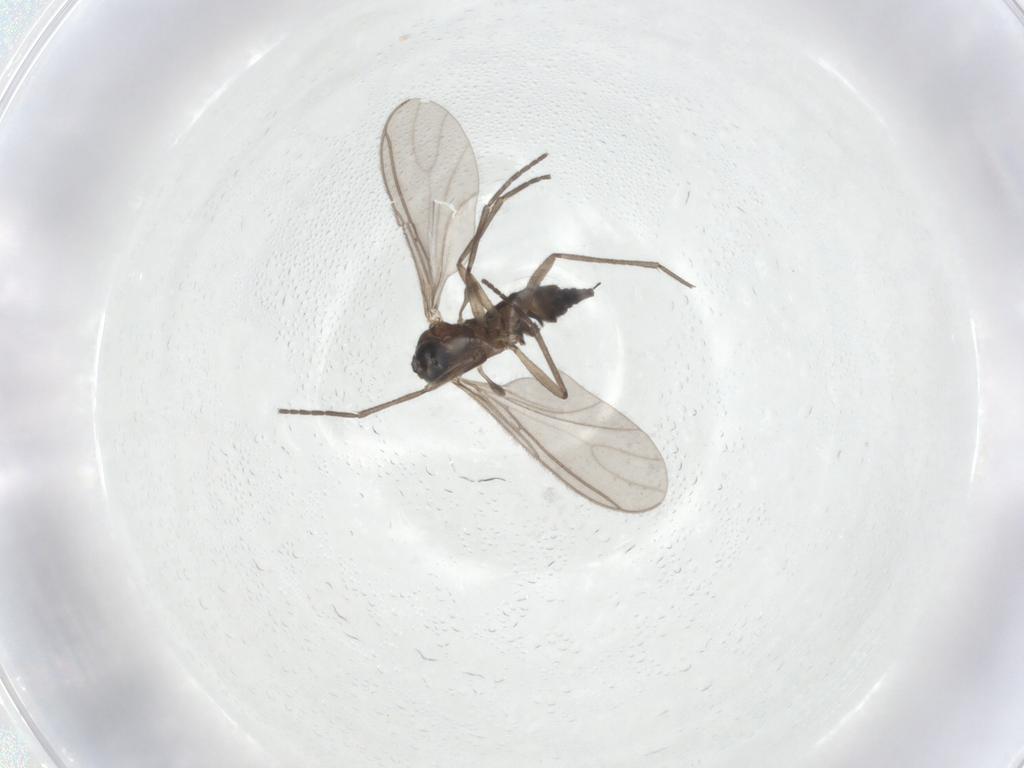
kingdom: Animalia
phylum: Arthropoda
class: Insecta
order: Diptera
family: Sciaridae
